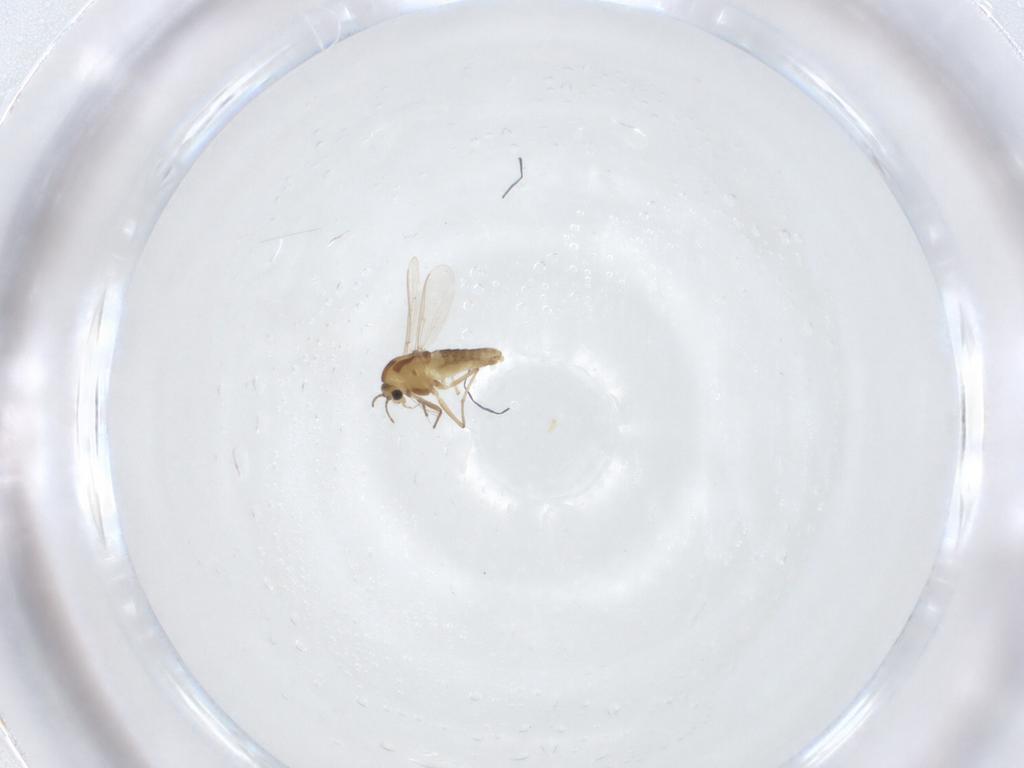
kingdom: Animalia
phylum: Arthropoda
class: Insecta
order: Diptera
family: Chironomidae
